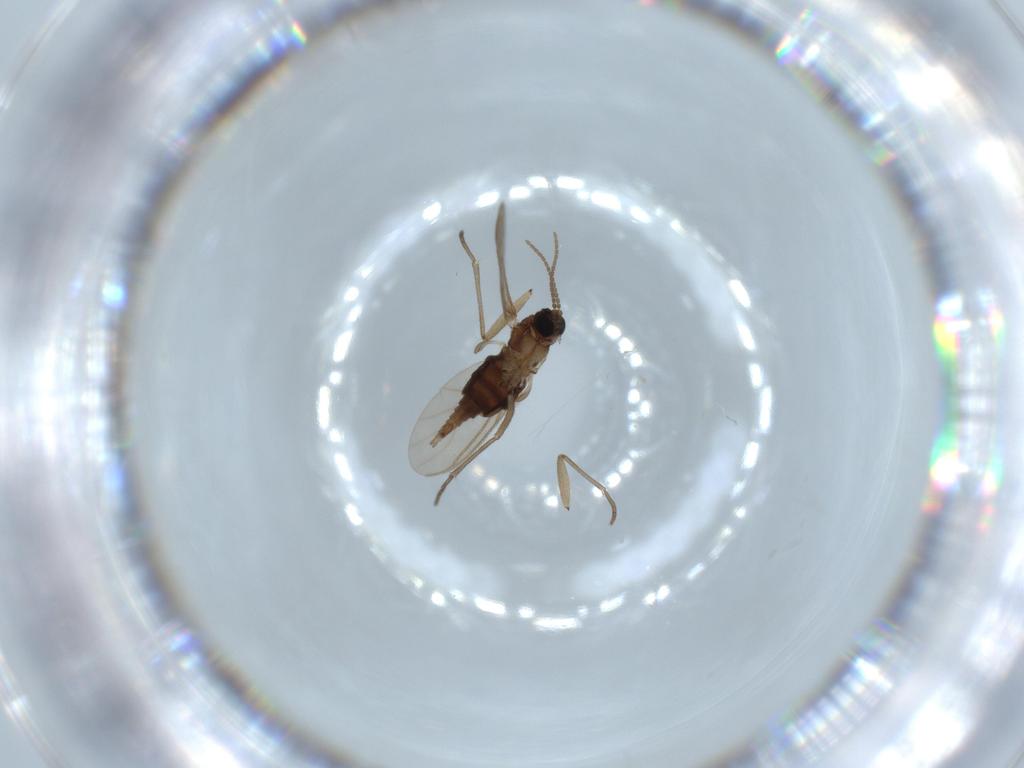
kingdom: Animalia
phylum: Arthropoda
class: Insecta
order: Diptera
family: Sciaridae
